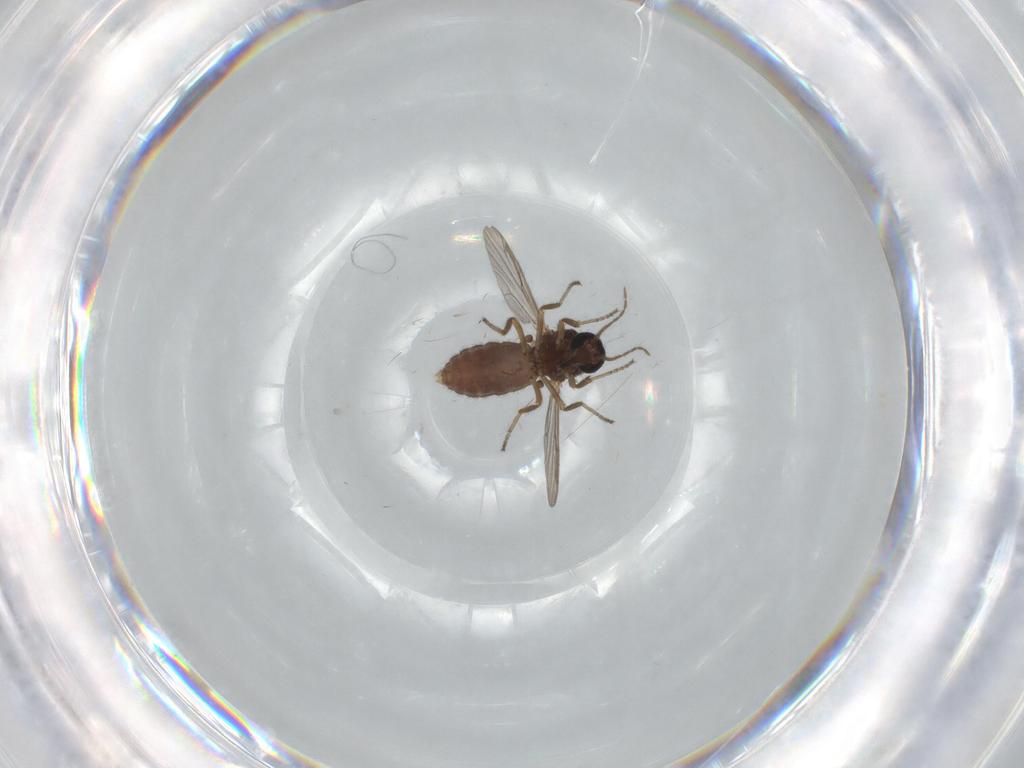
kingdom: Animalia
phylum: Arthropoda
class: Insecta
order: Diptera
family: Ceratopogonidae
